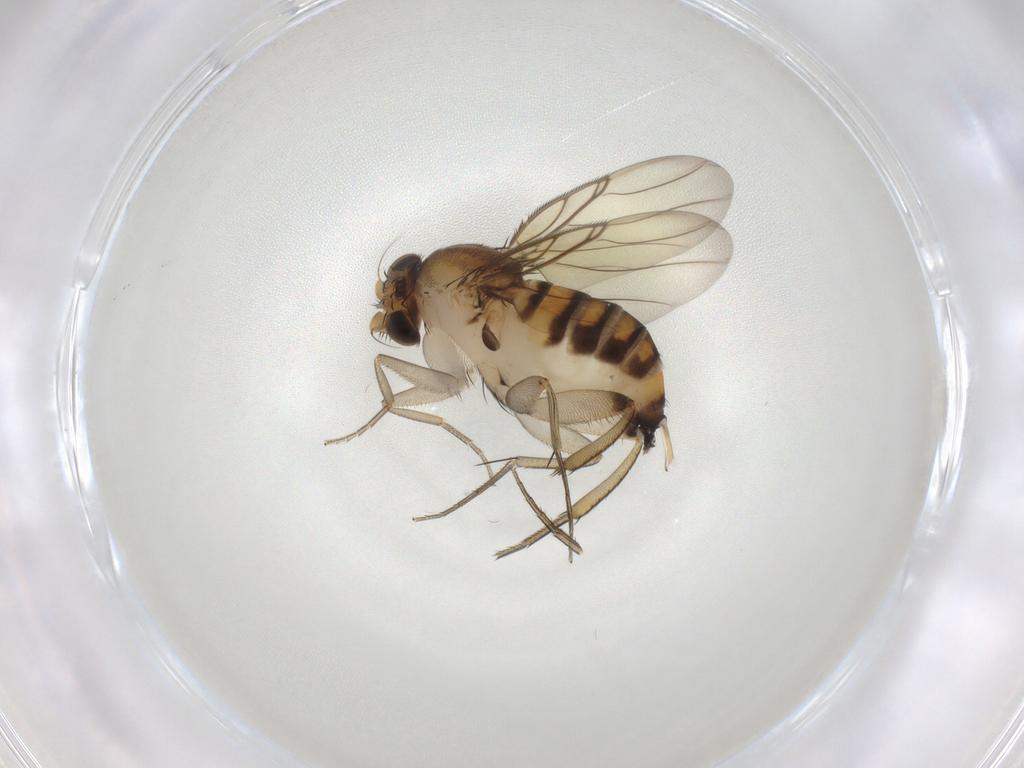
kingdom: Animalia
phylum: Arthropoda
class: Insecta
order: Diptera
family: Phoridae
